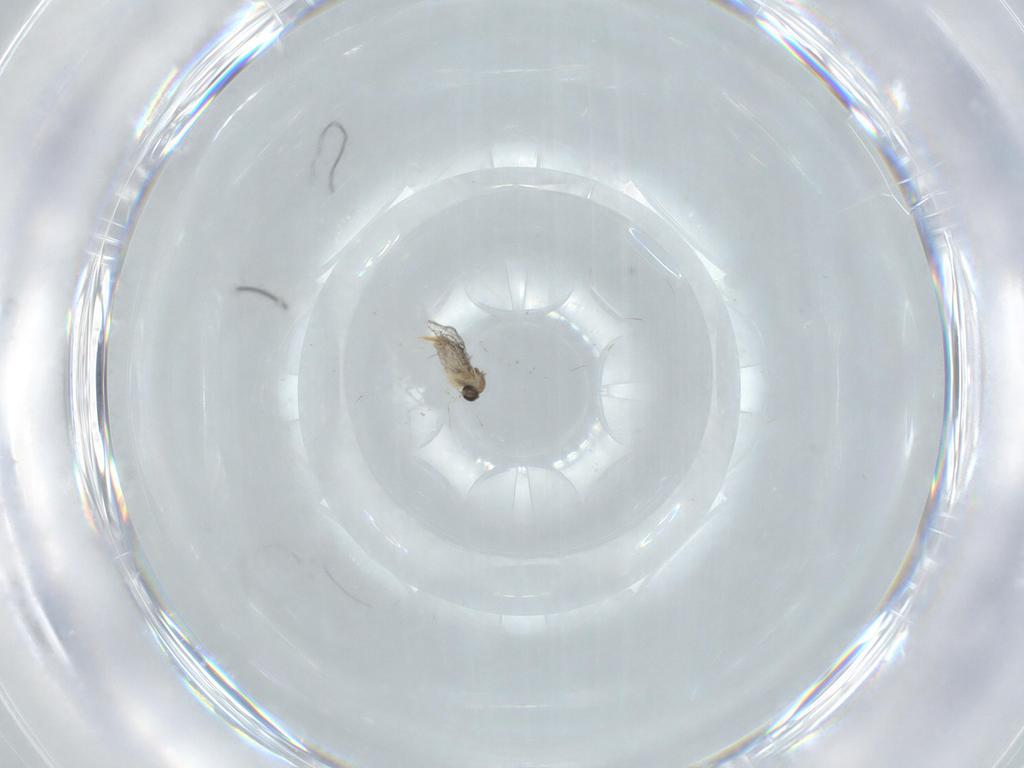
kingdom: Animalia
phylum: Arthropoda
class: Insecta
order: Diptera
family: Cecidomyiidae
